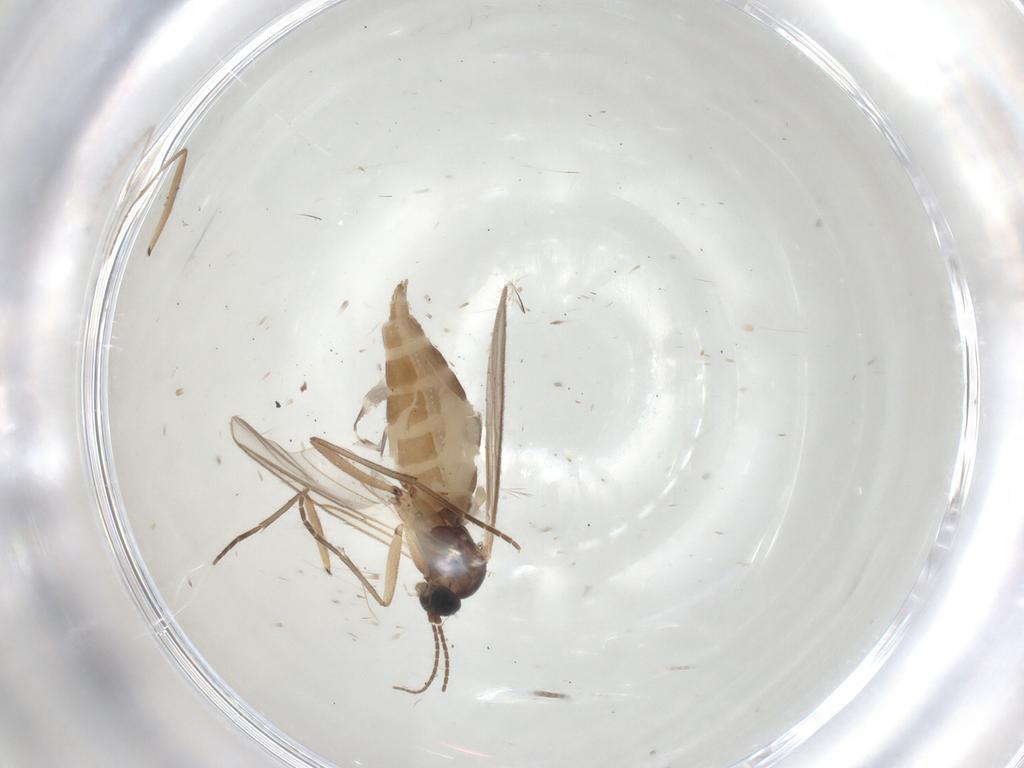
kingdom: Animalia
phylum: Arthropoda
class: Insecta
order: Diptera
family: Sciaridae
